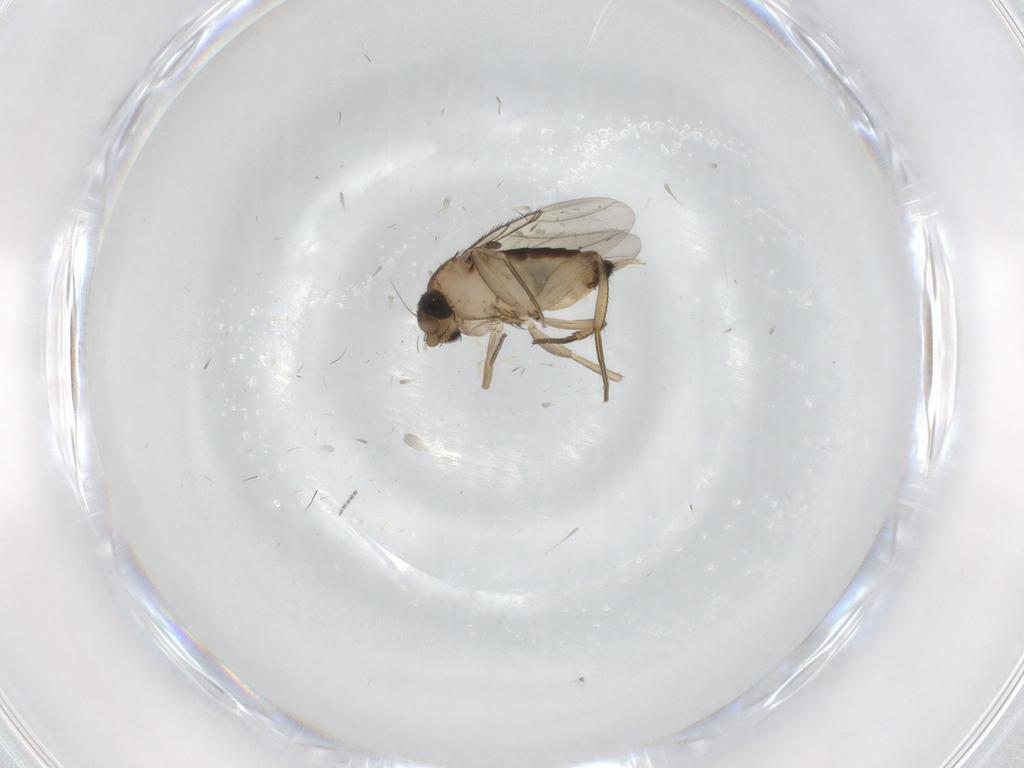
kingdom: Animalia
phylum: Arthropoda
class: Insecta
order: Diptera
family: Phoridae
